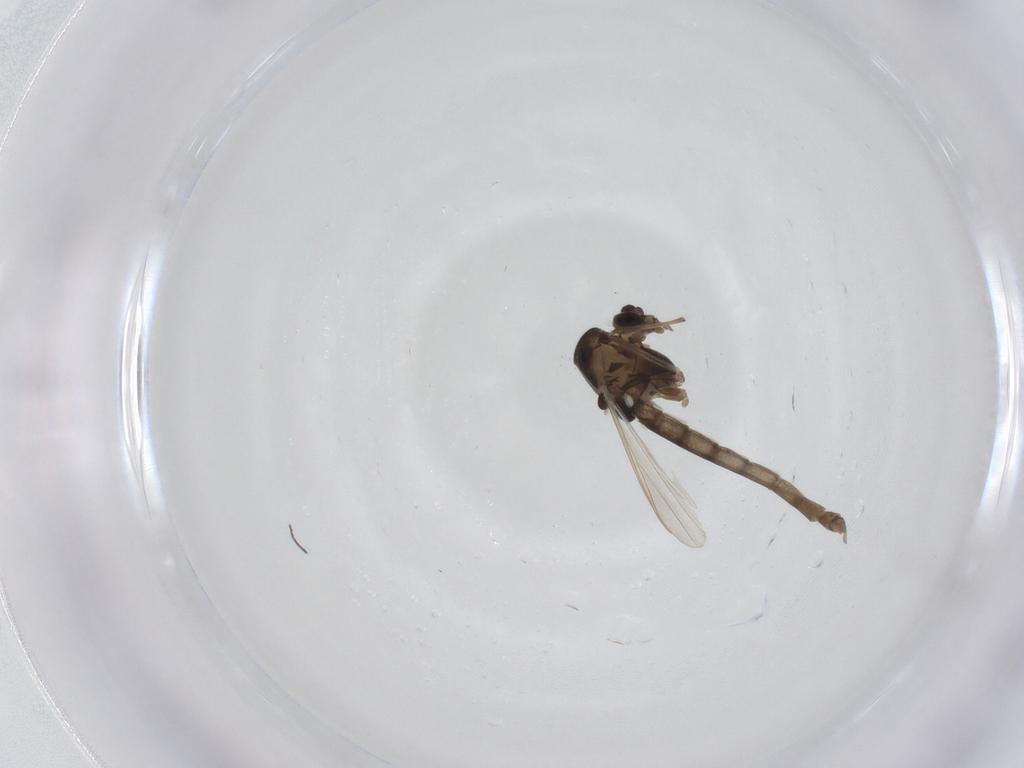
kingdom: Animalia
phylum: Arthropoda
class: Insecta
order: Diptera
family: Chironomidae
